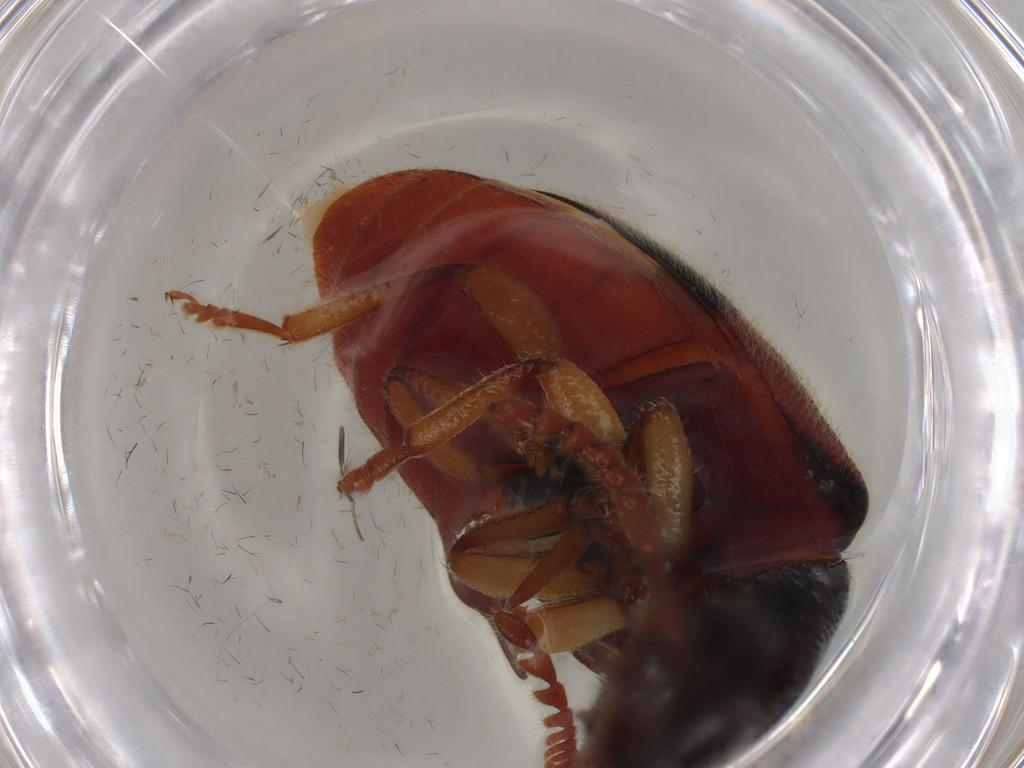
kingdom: Animalia
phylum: Arthropoda
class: Insecta
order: Coleoptera
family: Mycteridae
